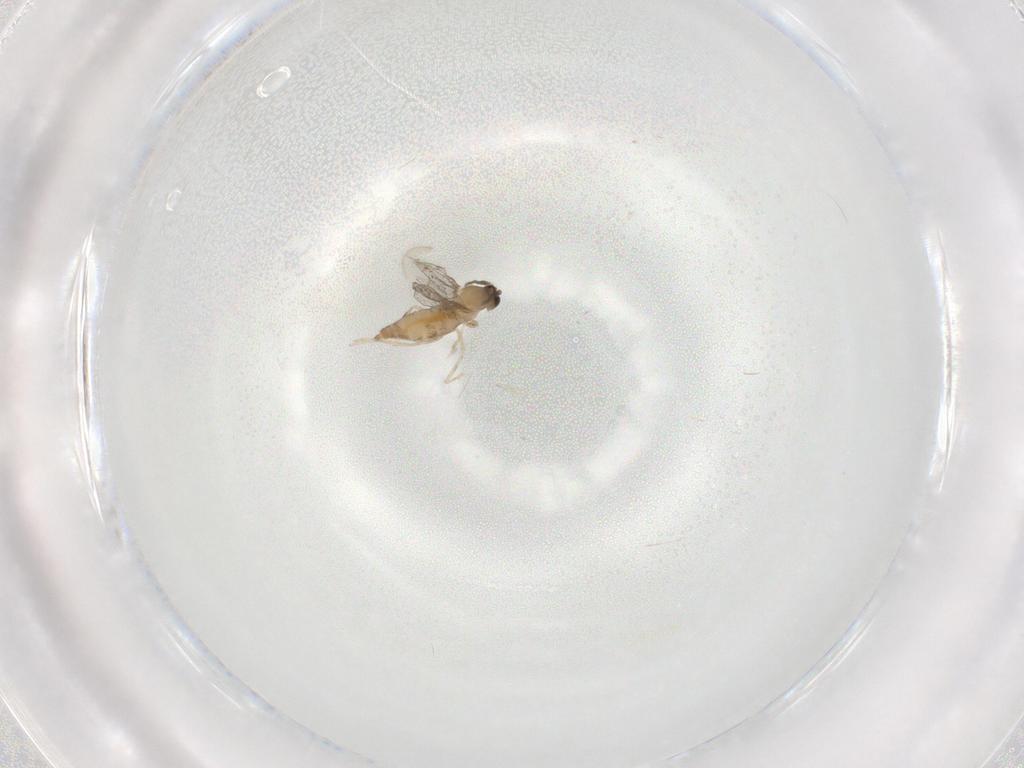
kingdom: Animalia
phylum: Arthropoda
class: Insecta
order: Diptera
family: Cecidomyiidae
